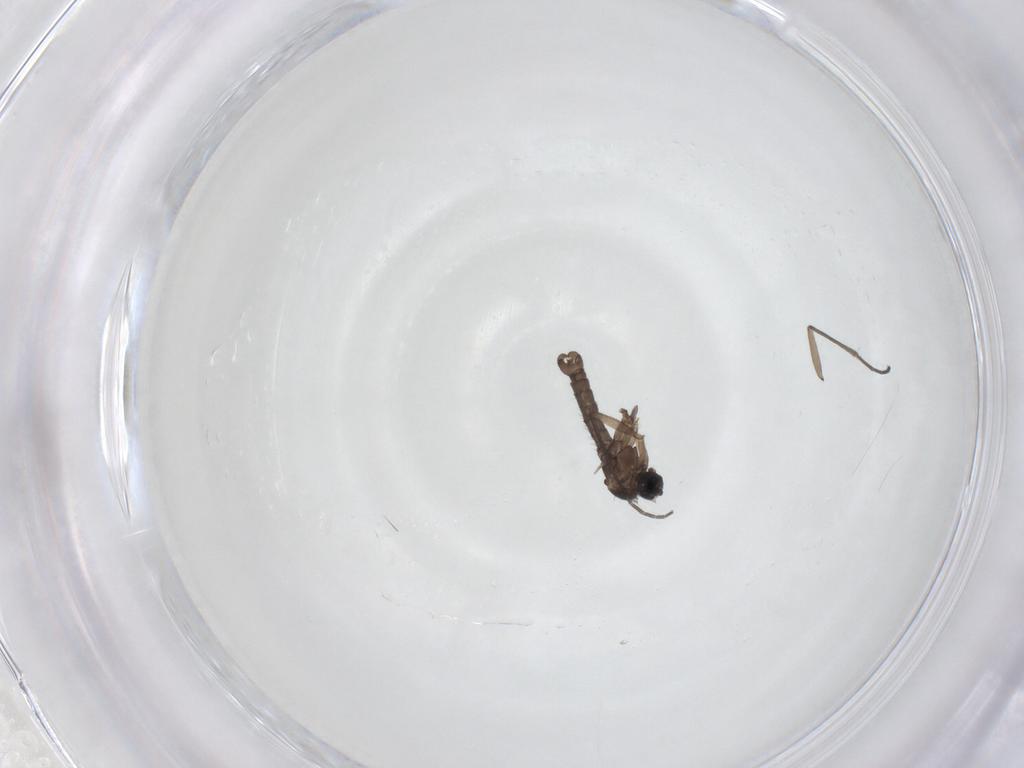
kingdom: Animalia
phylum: Arthropoda
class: Insecta
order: Diptera
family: Sciaridae
